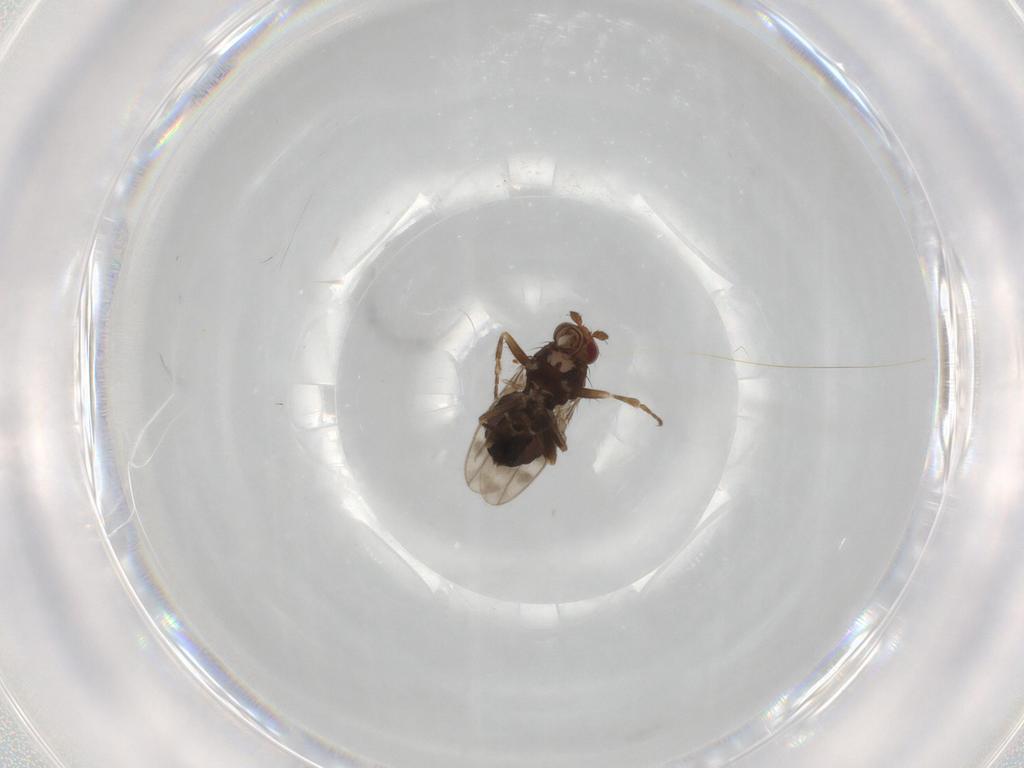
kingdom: Animalia
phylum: Arthropoda
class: Insecta
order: Diptera
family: Sphaeroceridae
